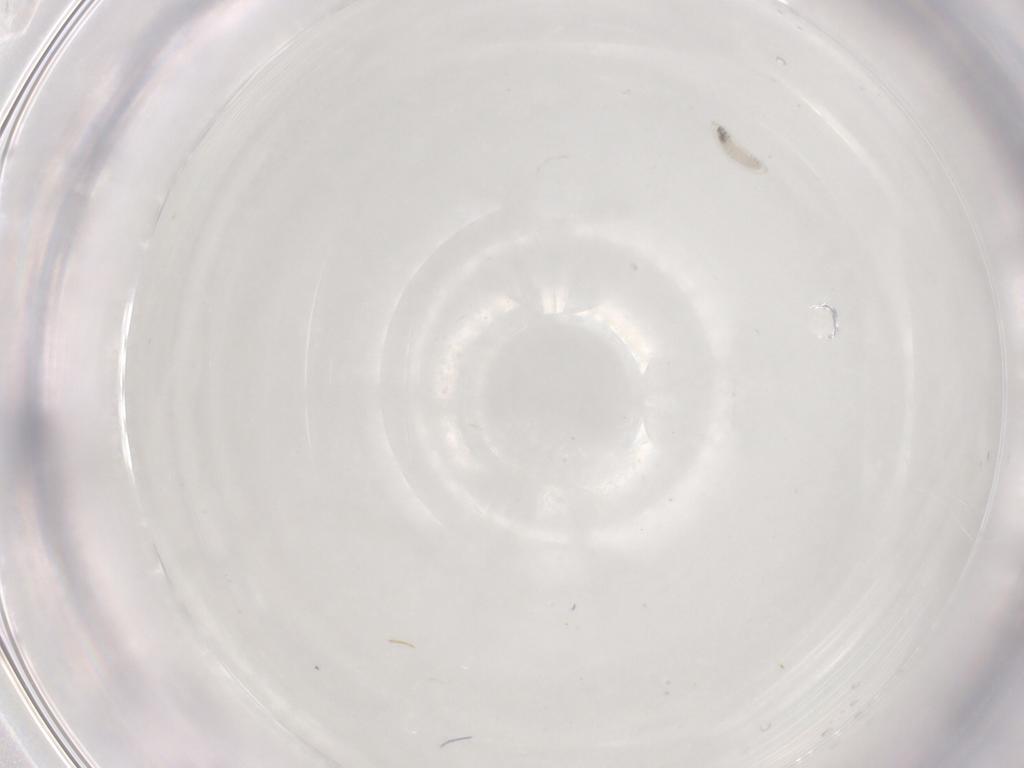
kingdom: Animalia
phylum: Arthropoda
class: Insecta
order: Diptera
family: Tachinidae
